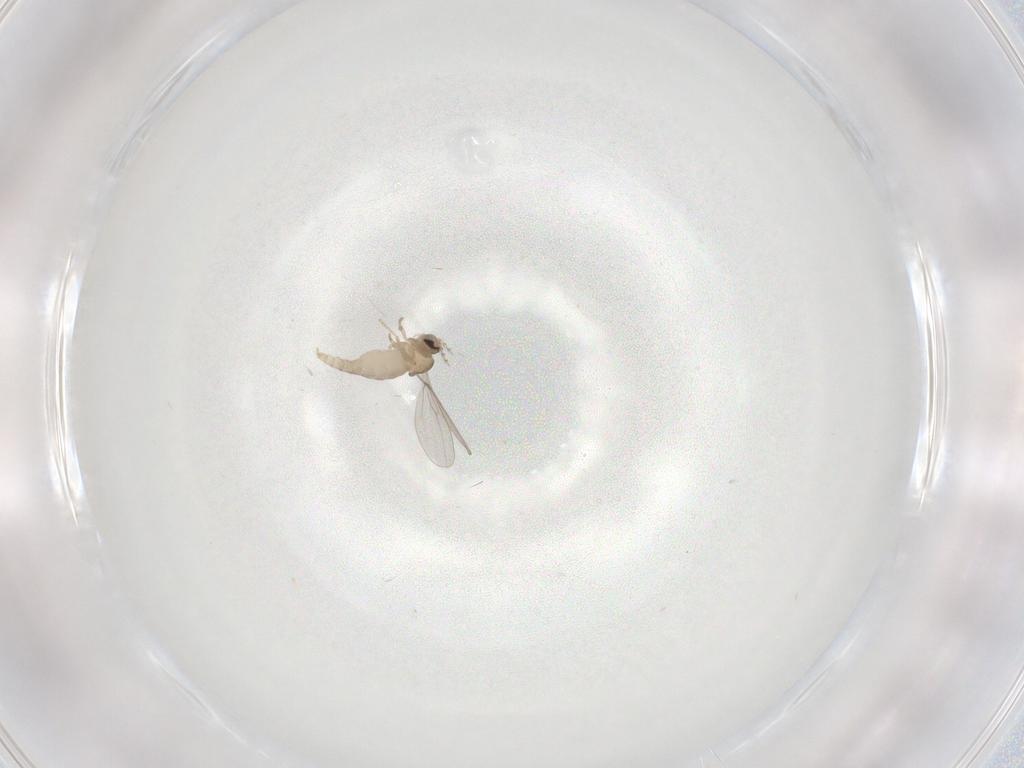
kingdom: Animalia
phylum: Arthropoda
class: Insecta
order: Diptera
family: Cecidomyiidae
